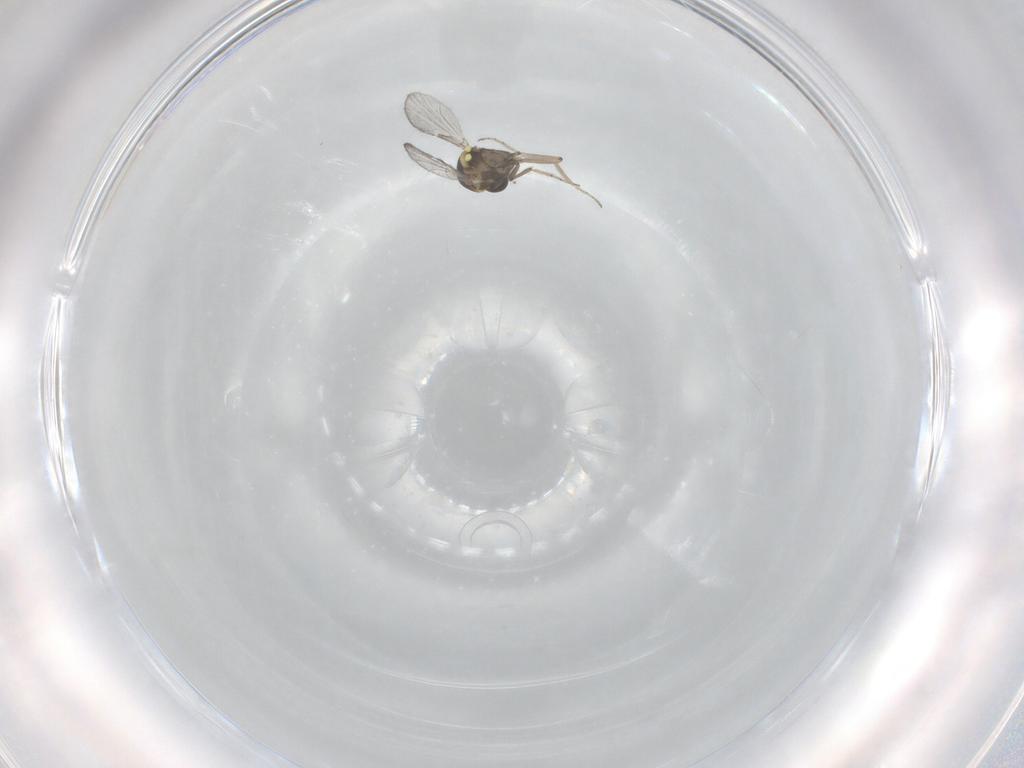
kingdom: Animalia
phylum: Arthropoda
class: Insecta
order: Diptera
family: Ceratopogonidae
